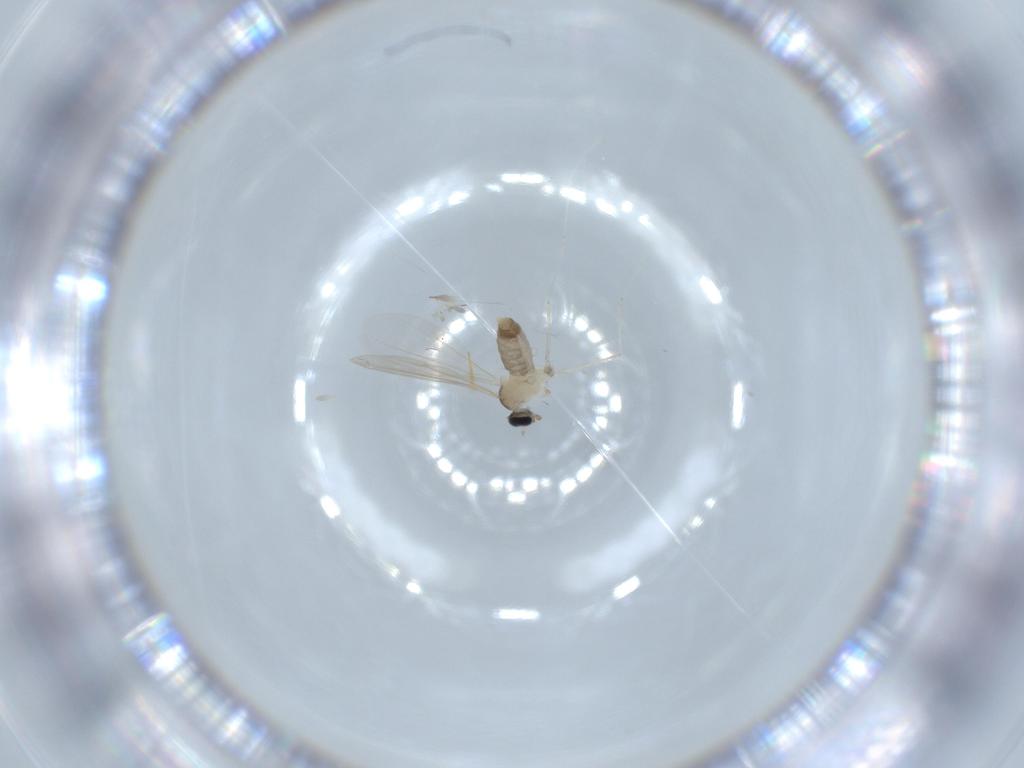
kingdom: Animalia
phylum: Arthropoda
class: Insecta
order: Diptera
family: Cecidomyiidae
